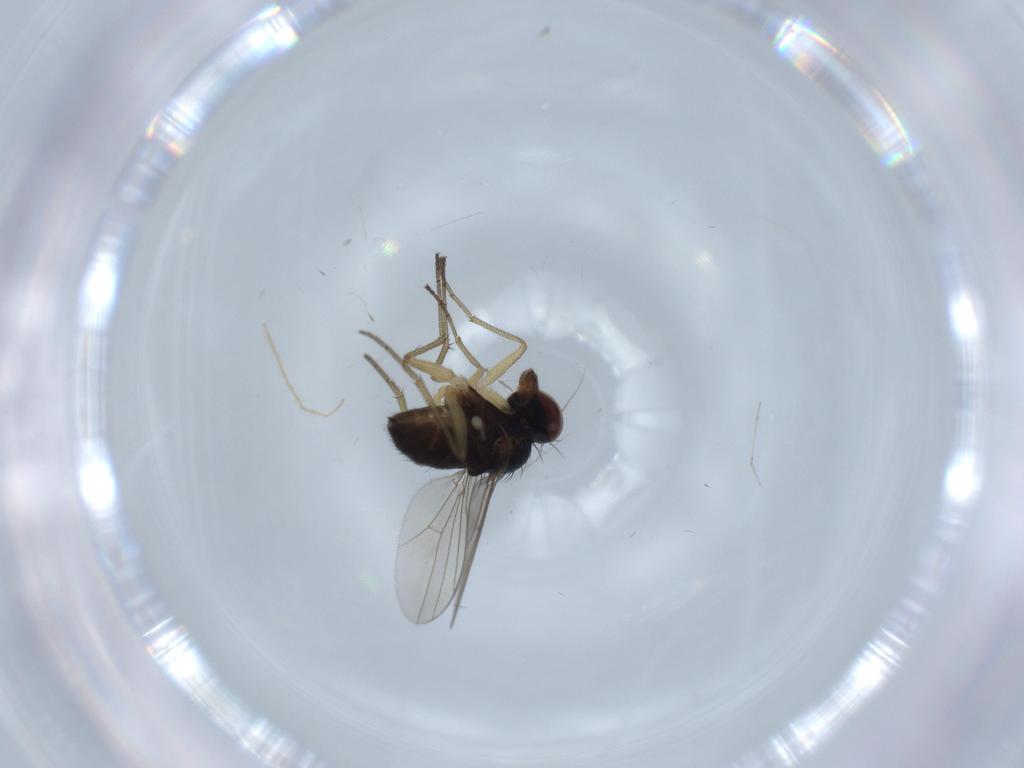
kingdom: Animalia
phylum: Arthropoda
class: Insecta
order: Diptera
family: Dolichopodidae
